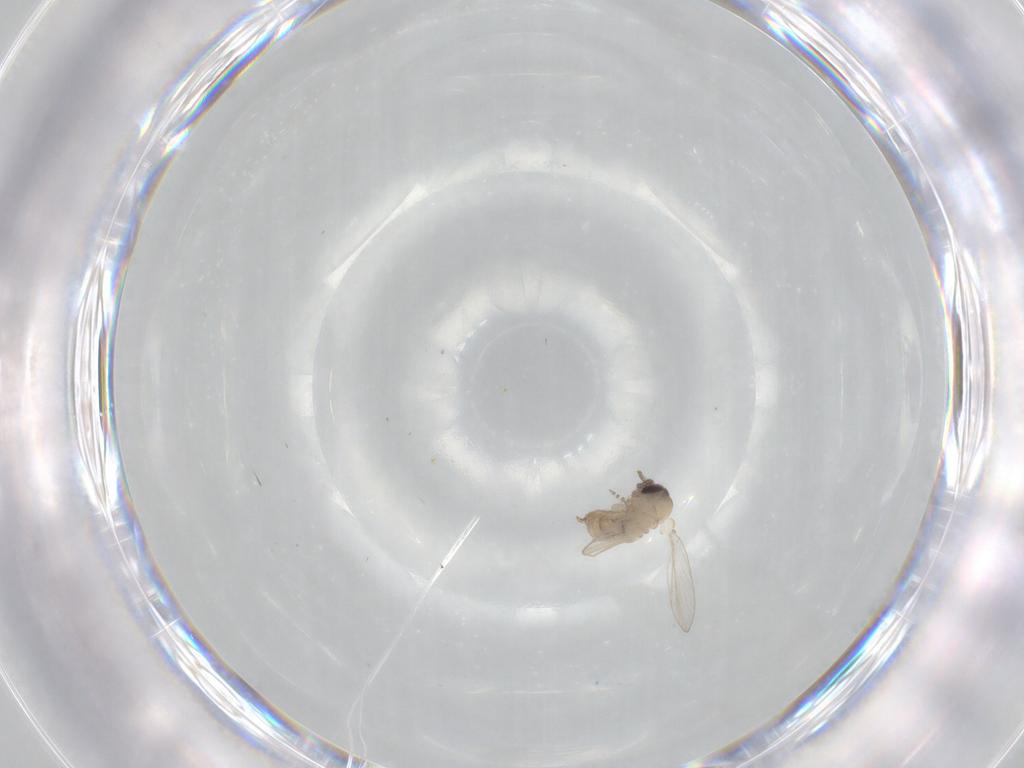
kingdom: Animalia
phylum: Arthropoda
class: Insecta
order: Diptera
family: Psychodidae
